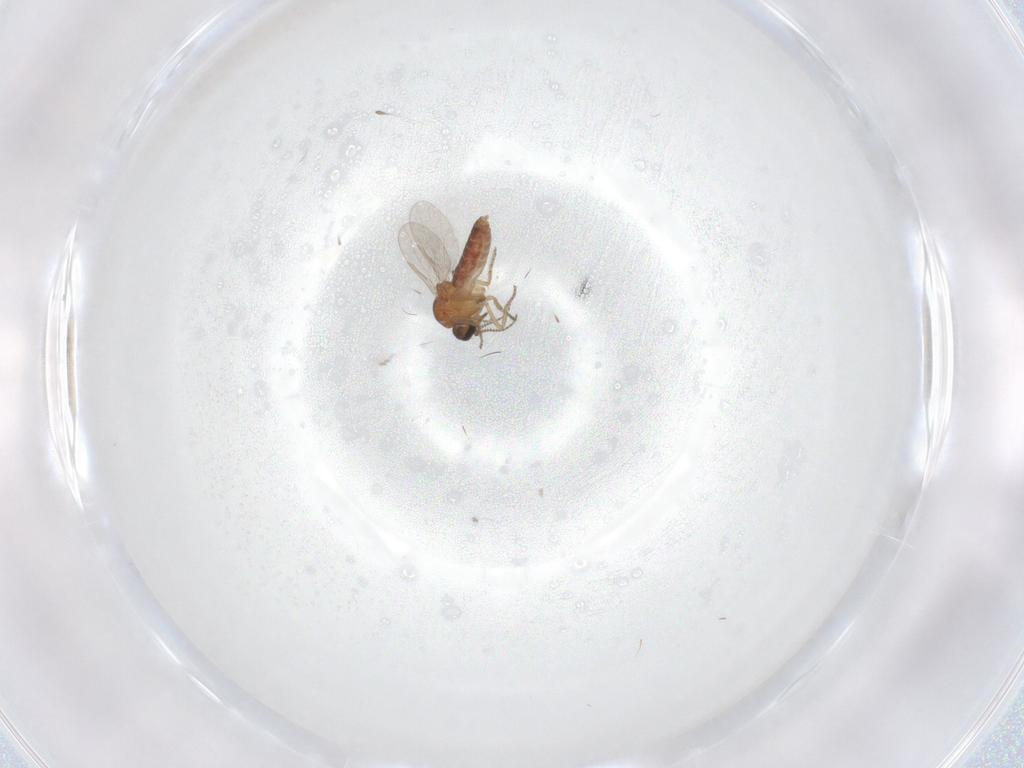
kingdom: Animalia
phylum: Arthropoda
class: Insecta
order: Diptera
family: Ceratopogonidae
